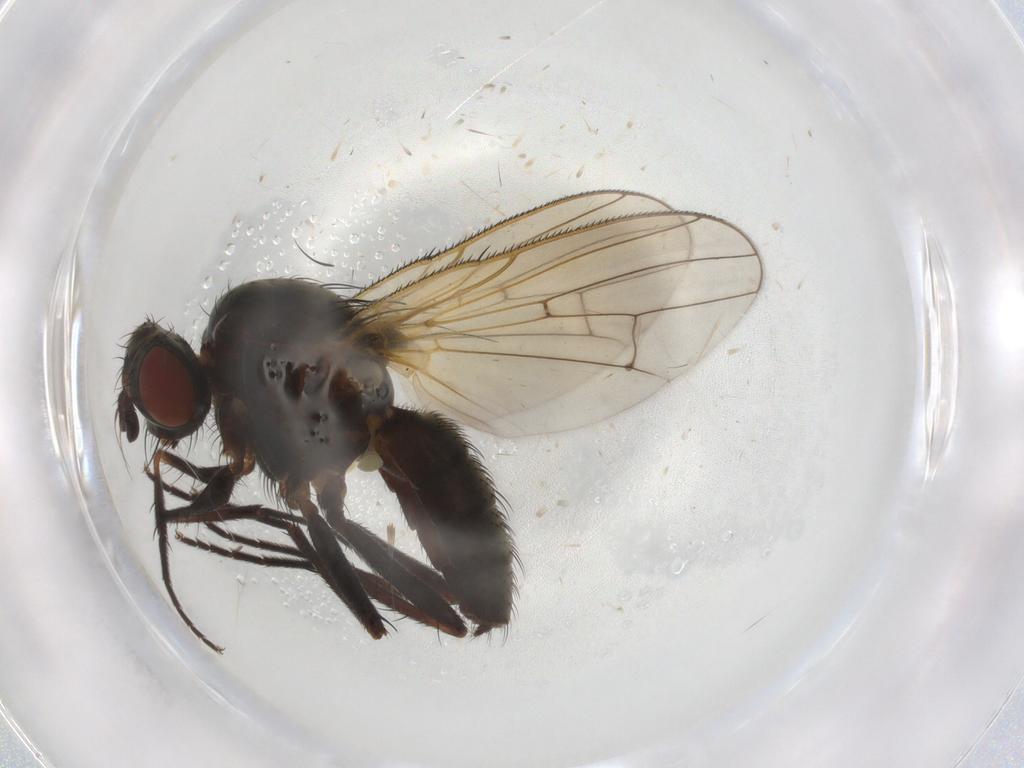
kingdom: Animalia
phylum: Arthropoda
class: Insecta
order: Diptera
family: Anthomyiidae
